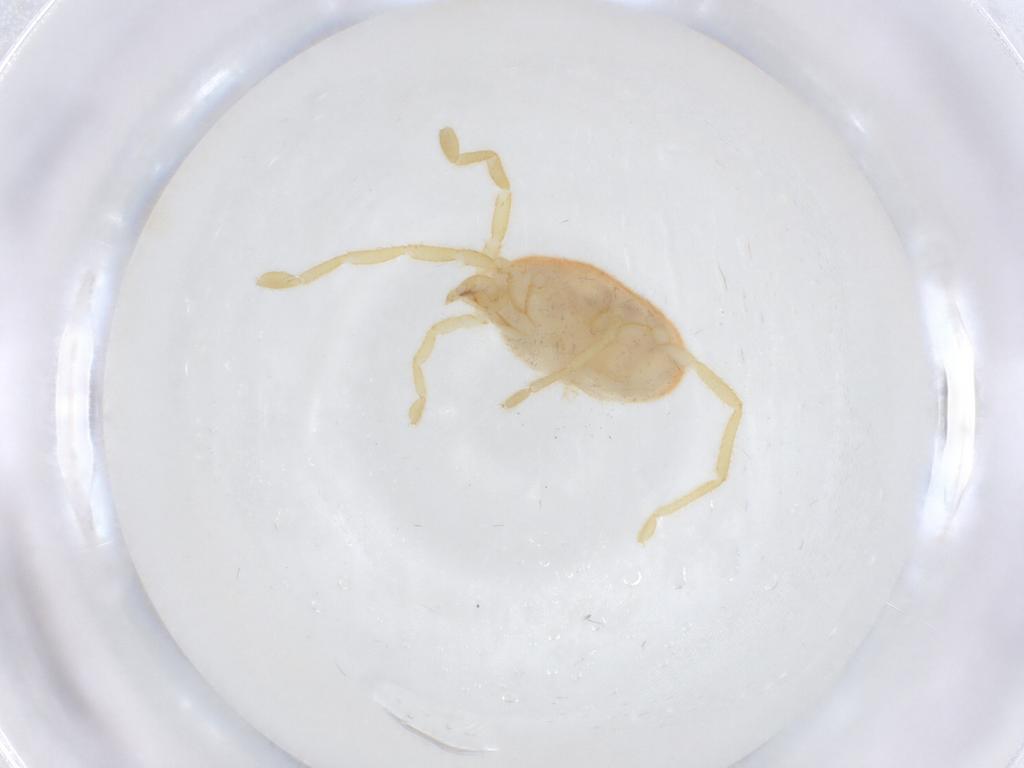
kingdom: Animalia
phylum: Arthropoda
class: Arachnida
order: Trombidiformes
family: Erythraeidae
